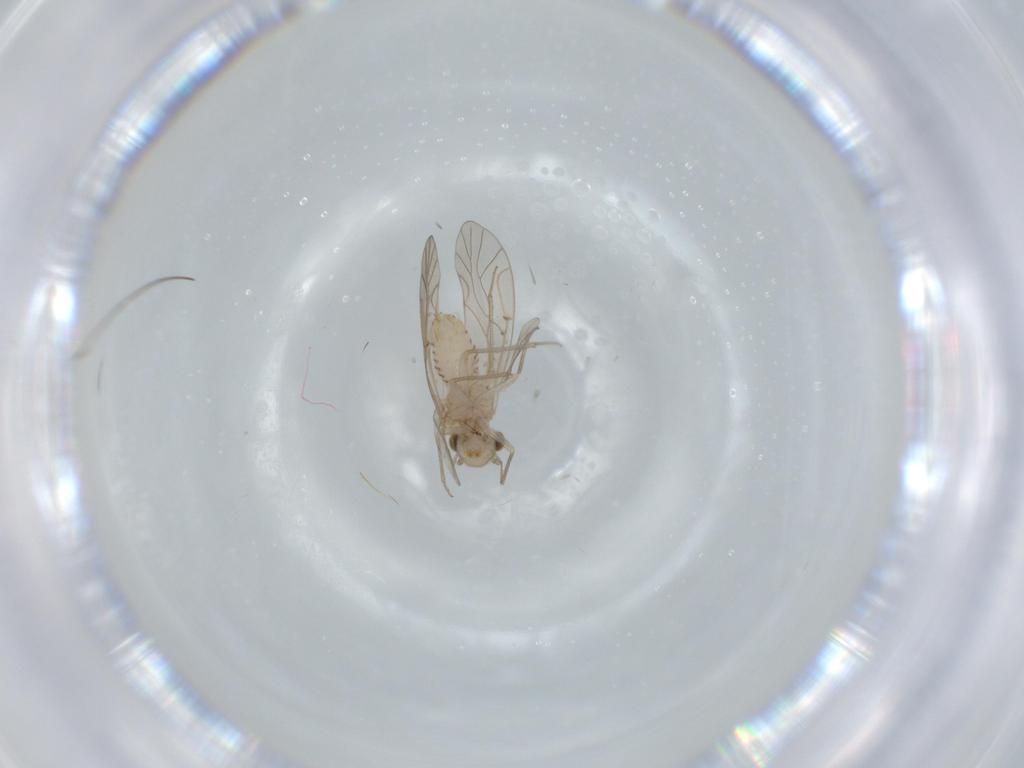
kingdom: Animalia
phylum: Arthropoda
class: Insecta
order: Psocodea
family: Lachesillidae
